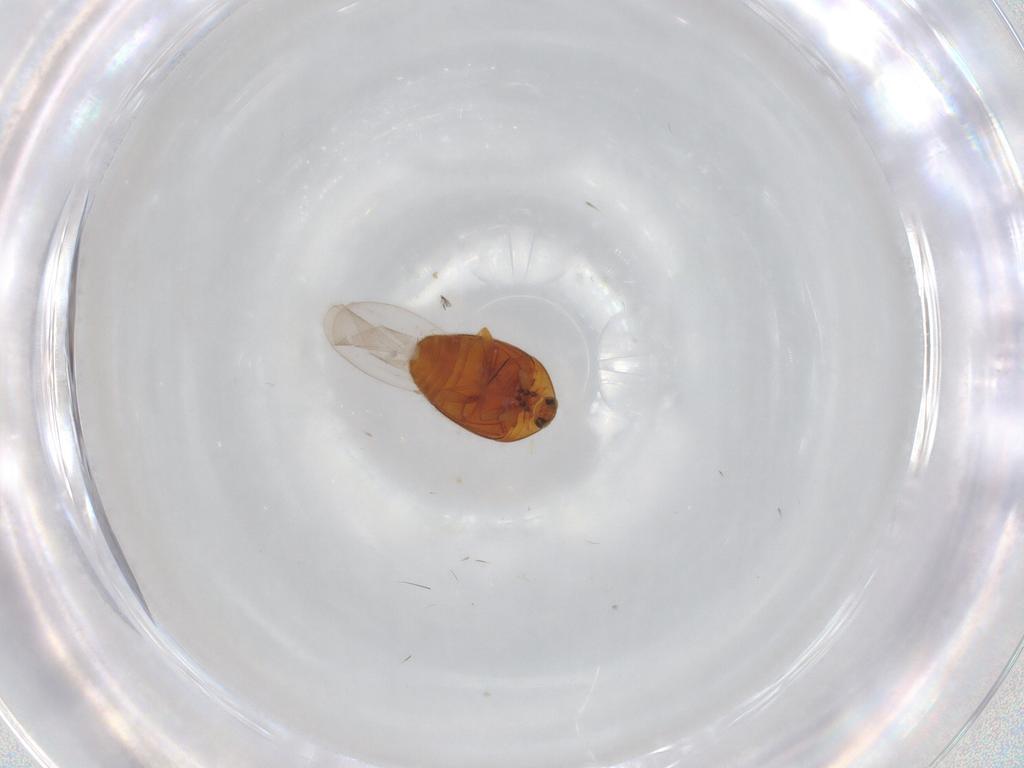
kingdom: Animalia
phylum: Arthropoda
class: Insecta
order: Coleoptera
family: Corylophidae
